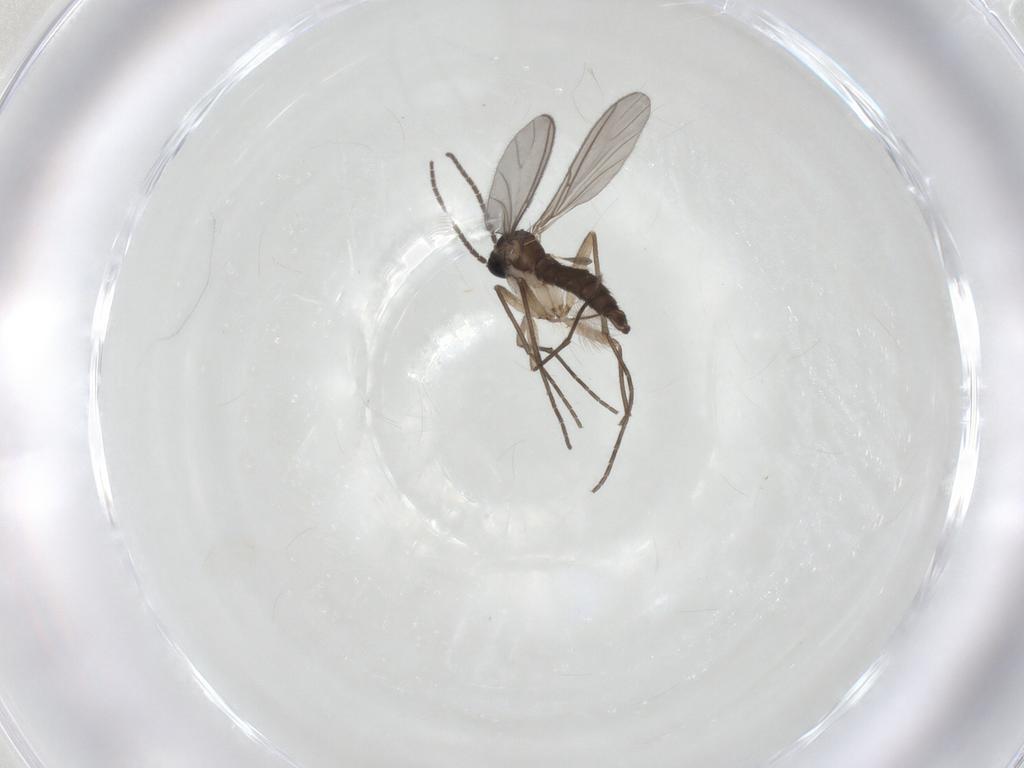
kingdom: Animalia
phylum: Arthropoda
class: Insecta
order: Diptera
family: Sciaridae
